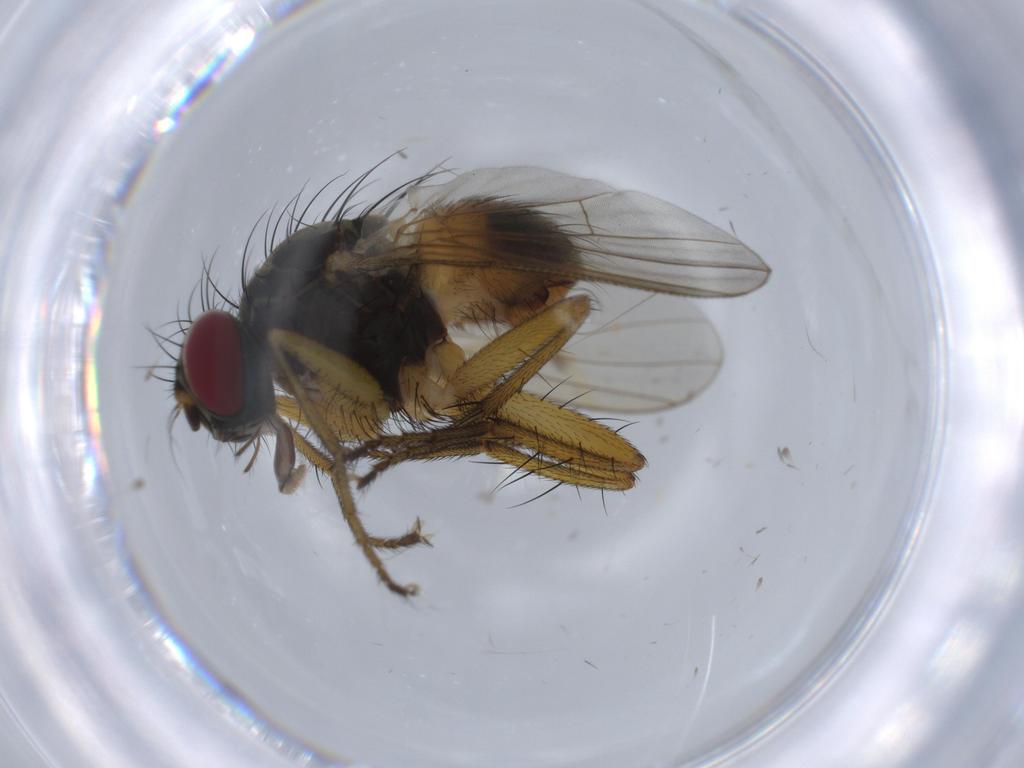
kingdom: Animalia
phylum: Arthropoda
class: Insecta
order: Diptera
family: Muscidae
